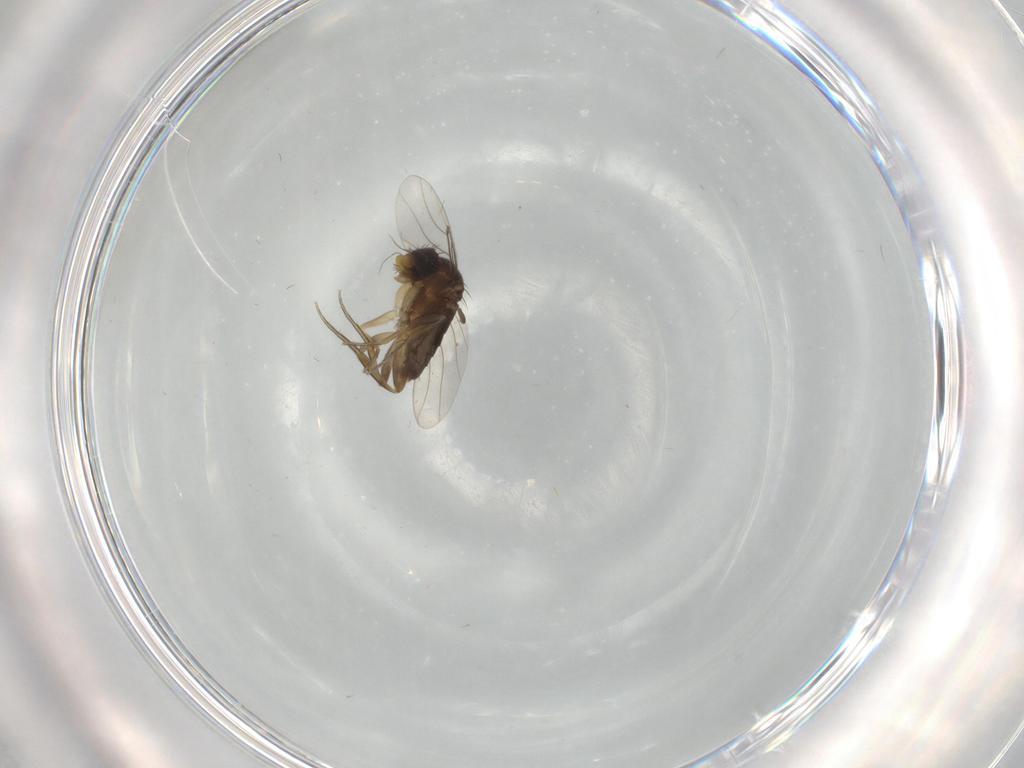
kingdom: Animalia
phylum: Arthropoda
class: Insecta
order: Diptera
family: Phoridae
